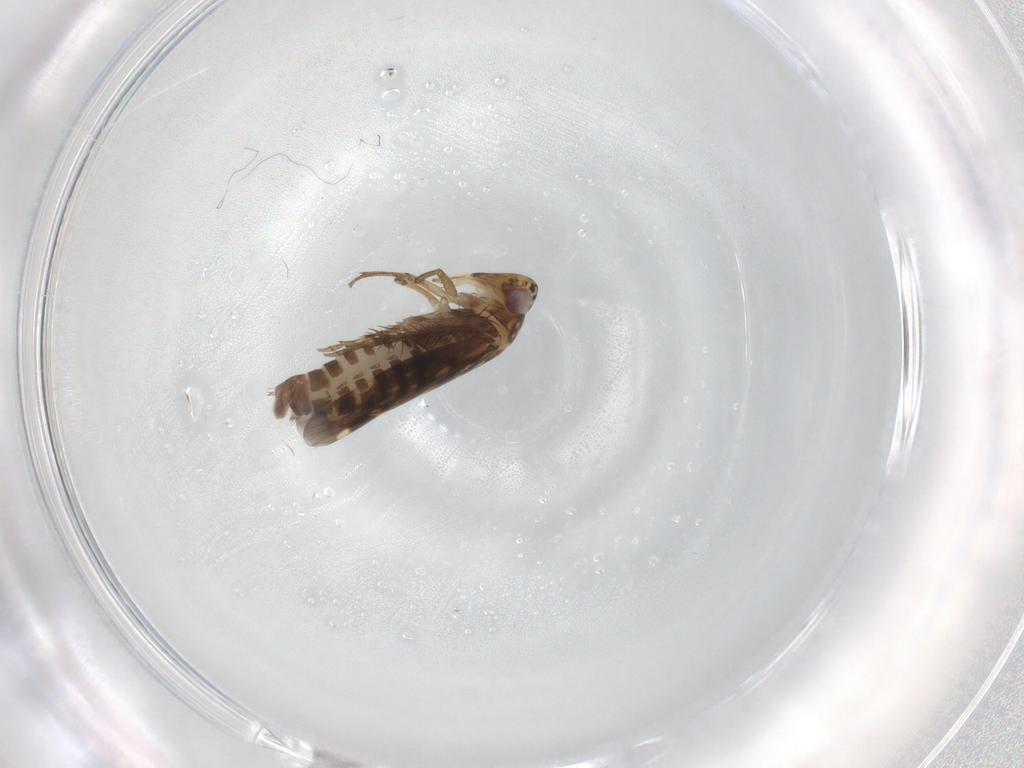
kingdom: Animalia
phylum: Arthropoda
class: Insecta
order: Hemiptera
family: Cicadellidae
